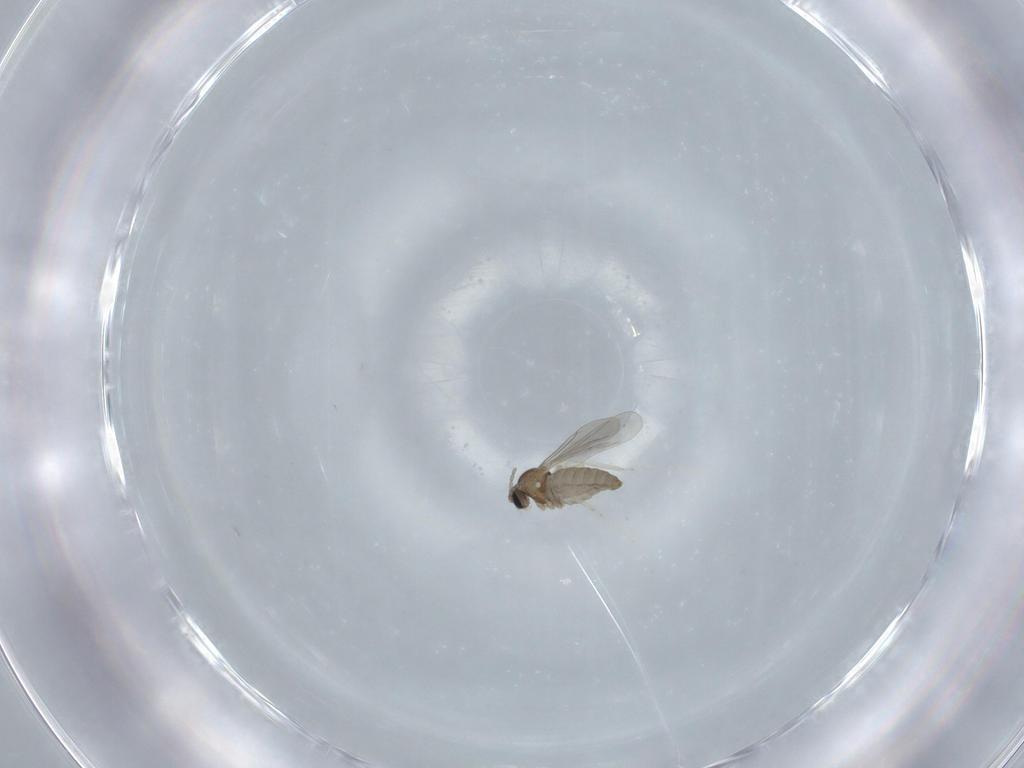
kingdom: Animalia
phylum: Arthropoda
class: Insecta
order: Diptera
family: Cecidomyiidae
